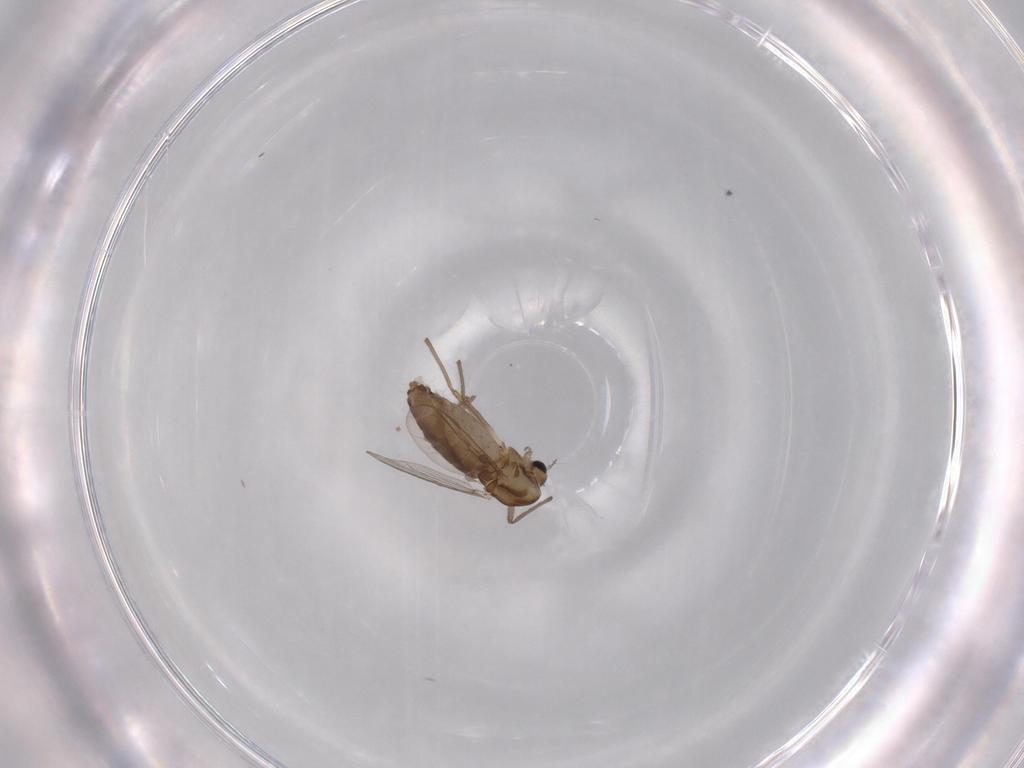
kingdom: Animalia
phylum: Arthropoda
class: Insecta
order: Diptera
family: Chironomidae
